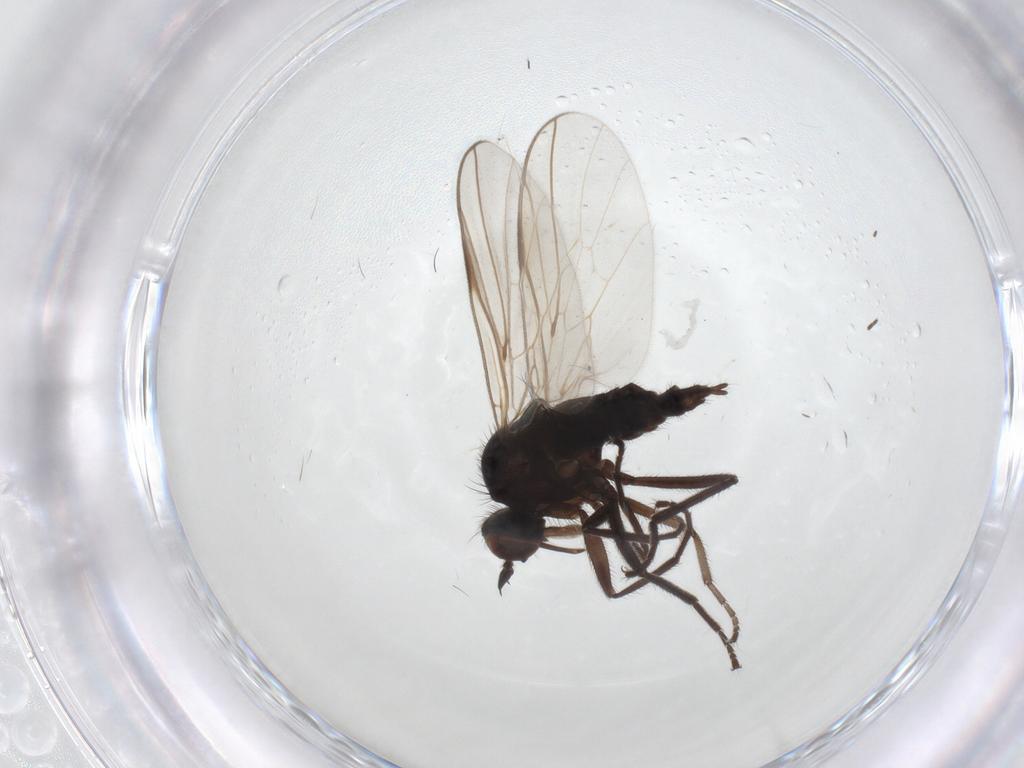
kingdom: Animalia
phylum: Arthropoda
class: Insecta
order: Diptera
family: Empididae
